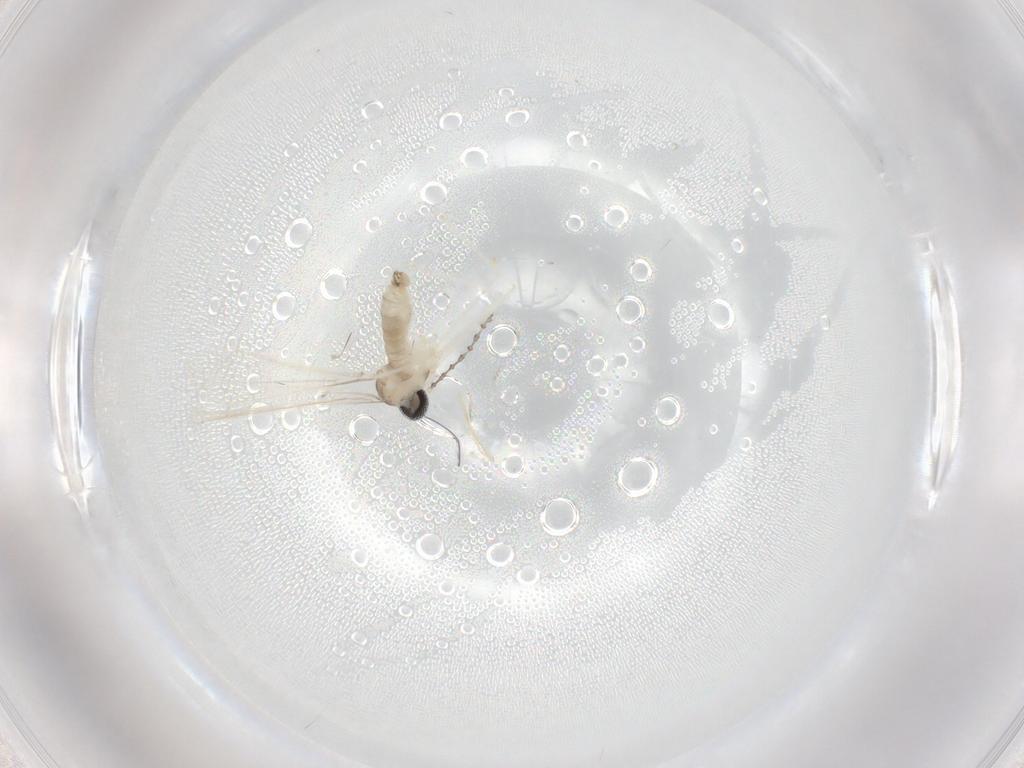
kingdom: Animalia
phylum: Arthropoda
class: Insecta
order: Diptera
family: Cecidomyiidae
